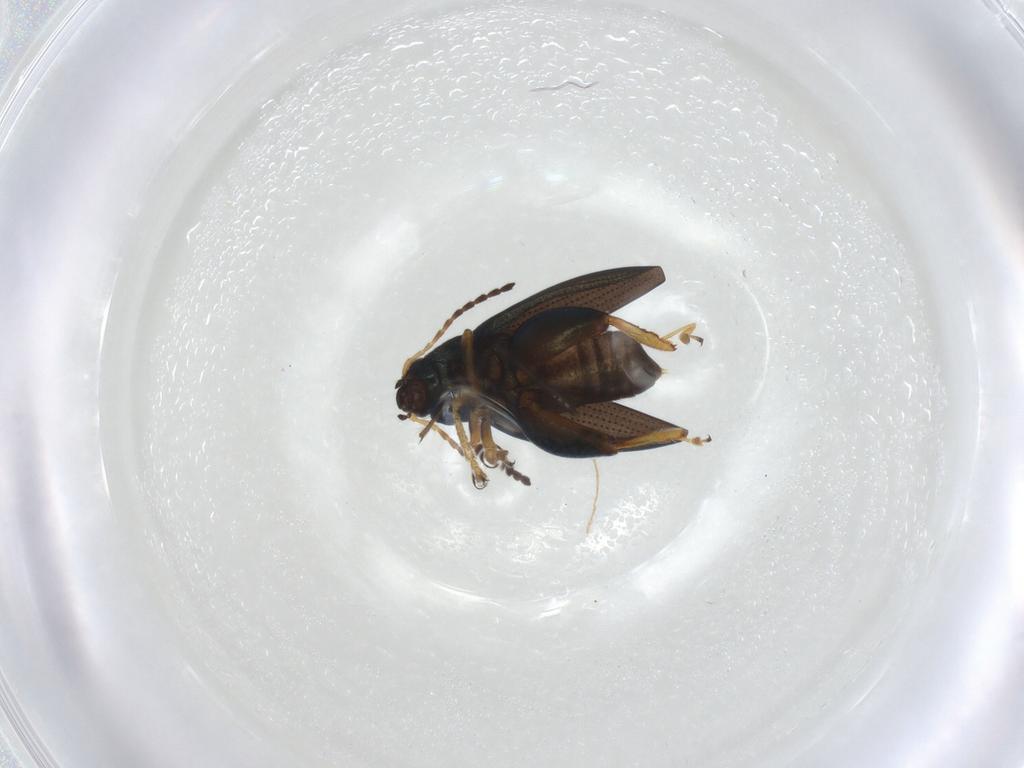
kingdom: Animalia
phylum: Arthropoda
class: Insecta
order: Coleoptera
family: Chrysomelidae
